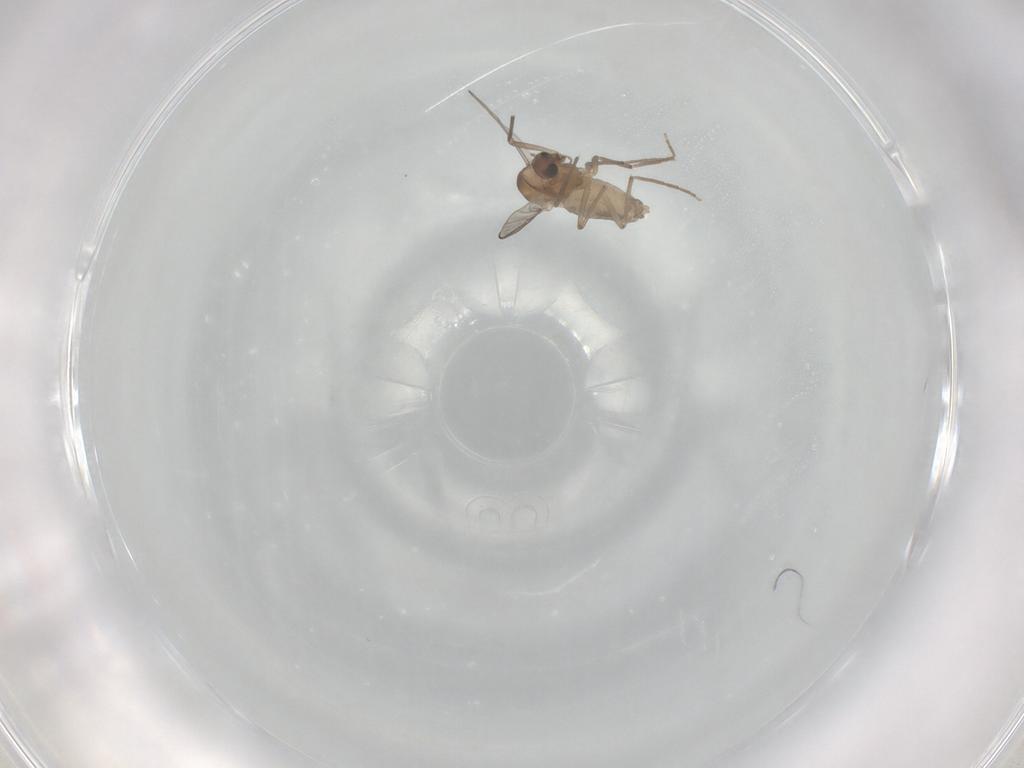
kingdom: Animalia
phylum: Arthropoda
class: Insecta
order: Diptera
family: Chironomidae
